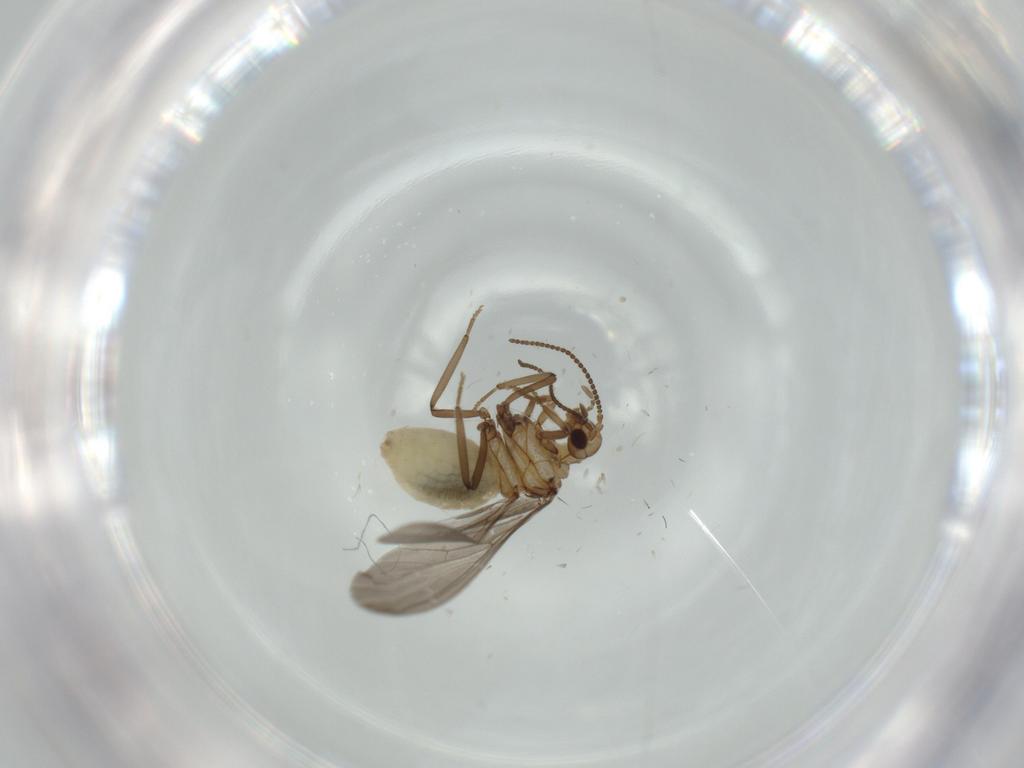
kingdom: Animalia
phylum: Arthropoda
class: Insecta
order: Neuroptera
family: Coniopterygidae
